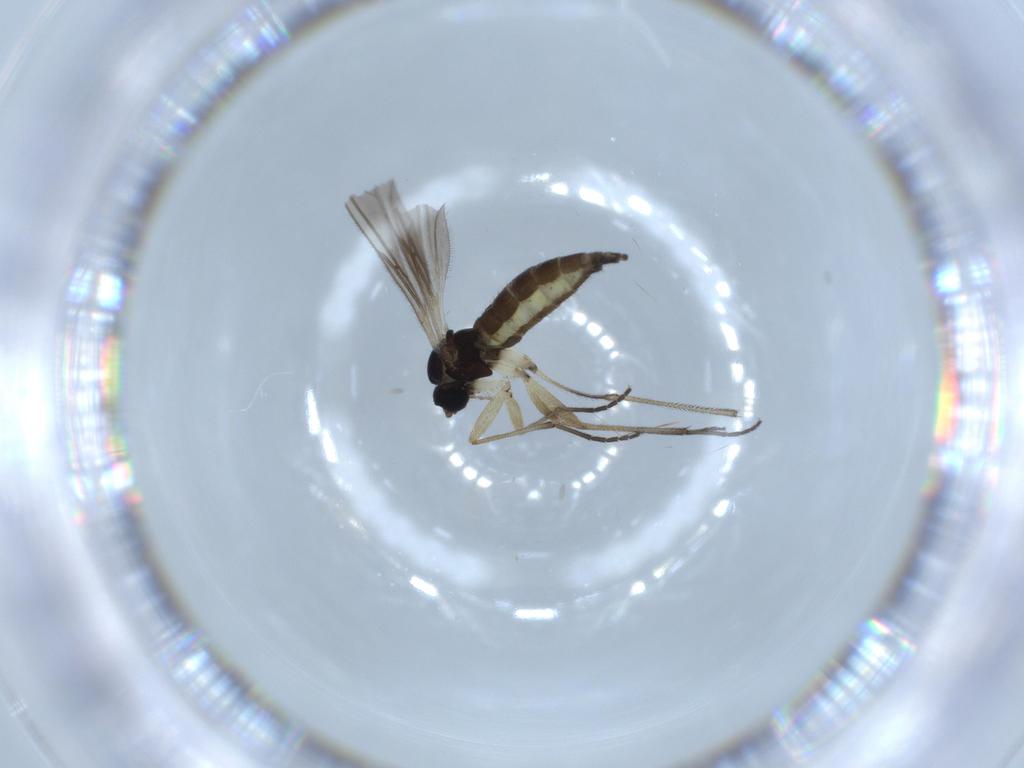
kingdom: Animalia
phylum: Arthropoda
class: Insecta
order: Diptera
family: Sciaridae
